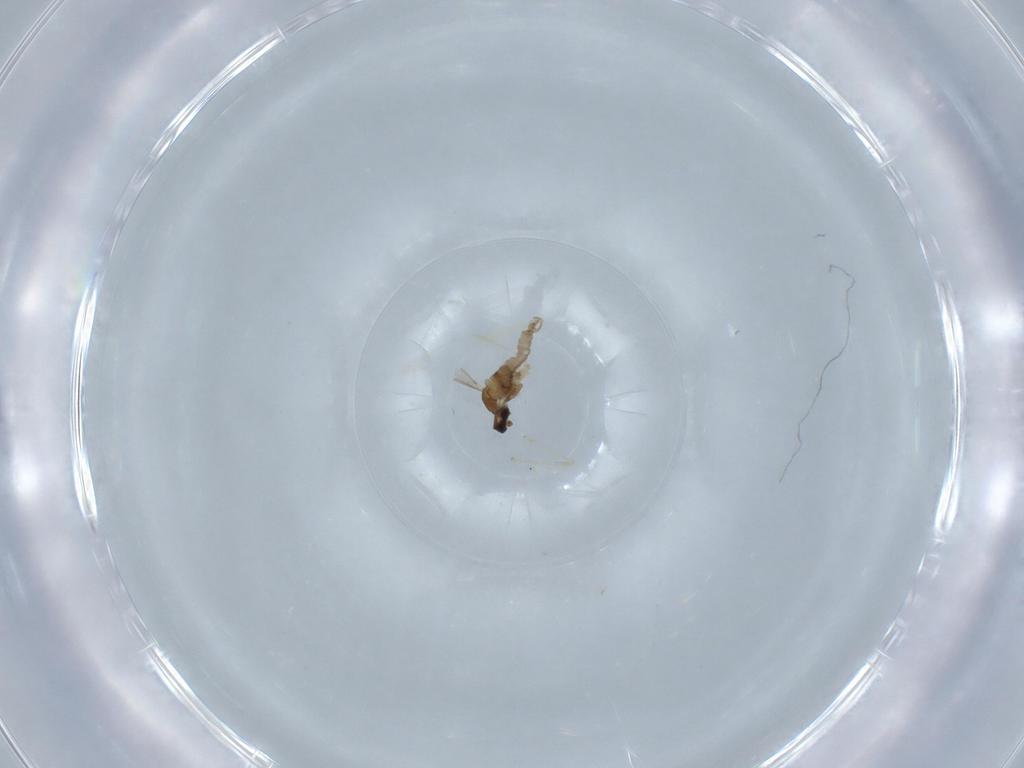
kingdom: Animalia
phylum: Arthropoda
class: Insecta
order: Diptera
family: Cecidomyiidae
